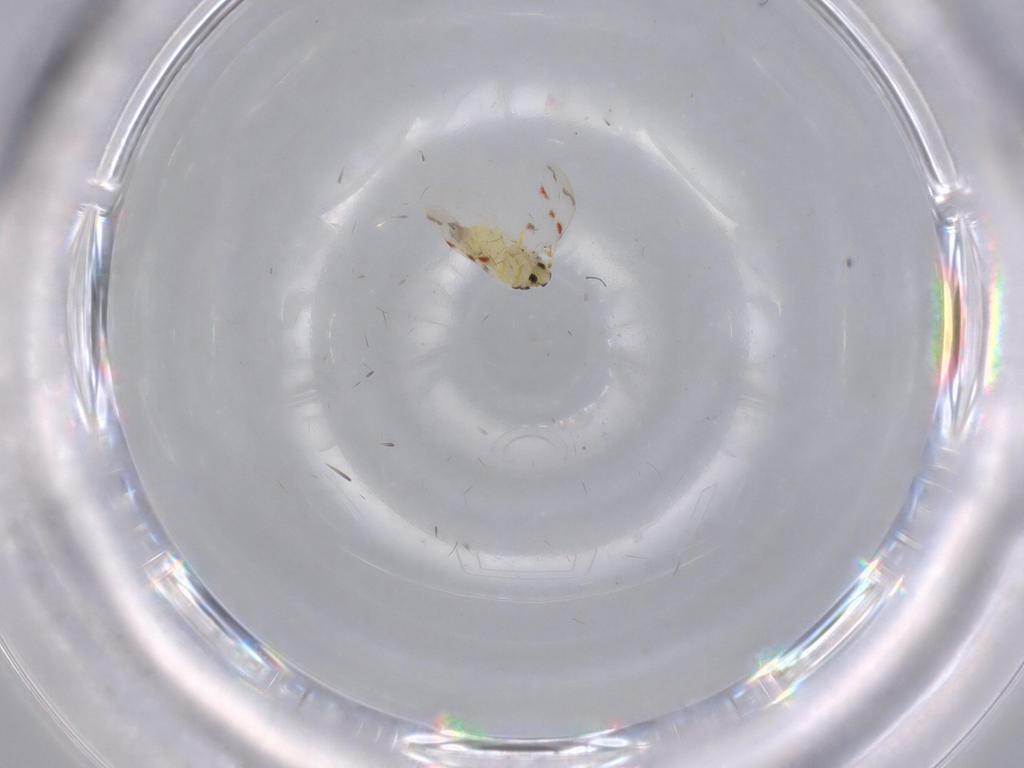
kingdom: Animalia
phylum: Arthropoda
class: Insecta
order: Hemiptera
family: Aleyrodidae
